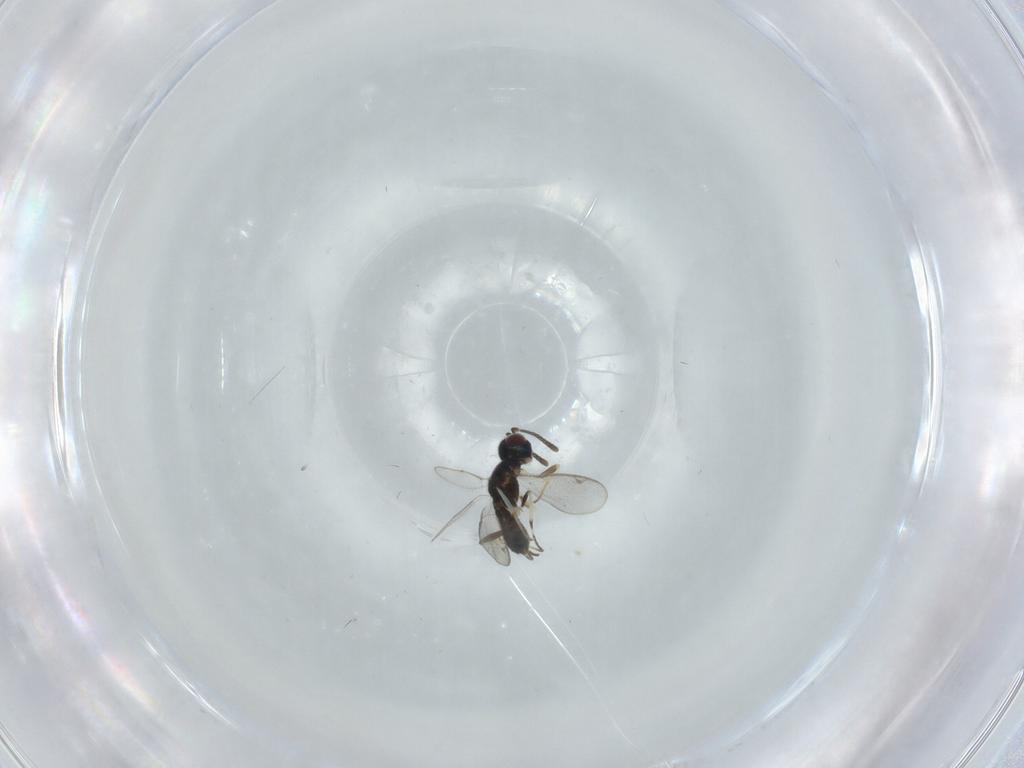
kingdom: Animalia
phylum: Arthropoda
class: Insecta
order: Hymenoptera
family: Eupelmidae
